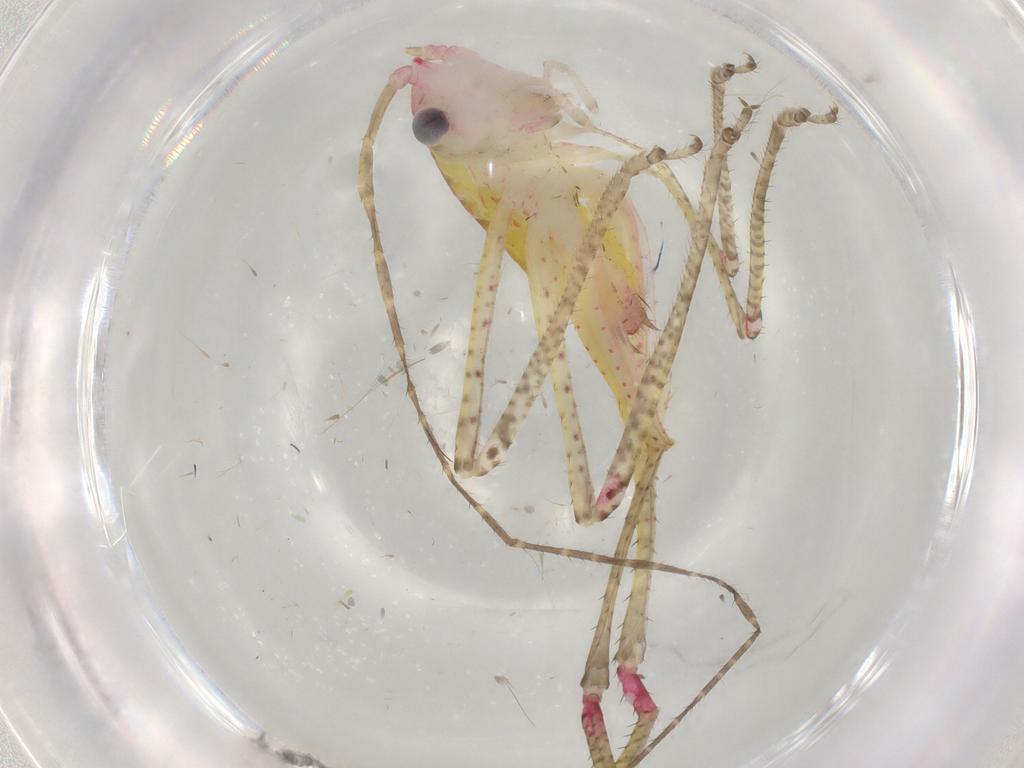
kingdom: Animalia
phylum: Arthropoda
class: Insecta
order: Orthoptera
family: Tettigoniidae
